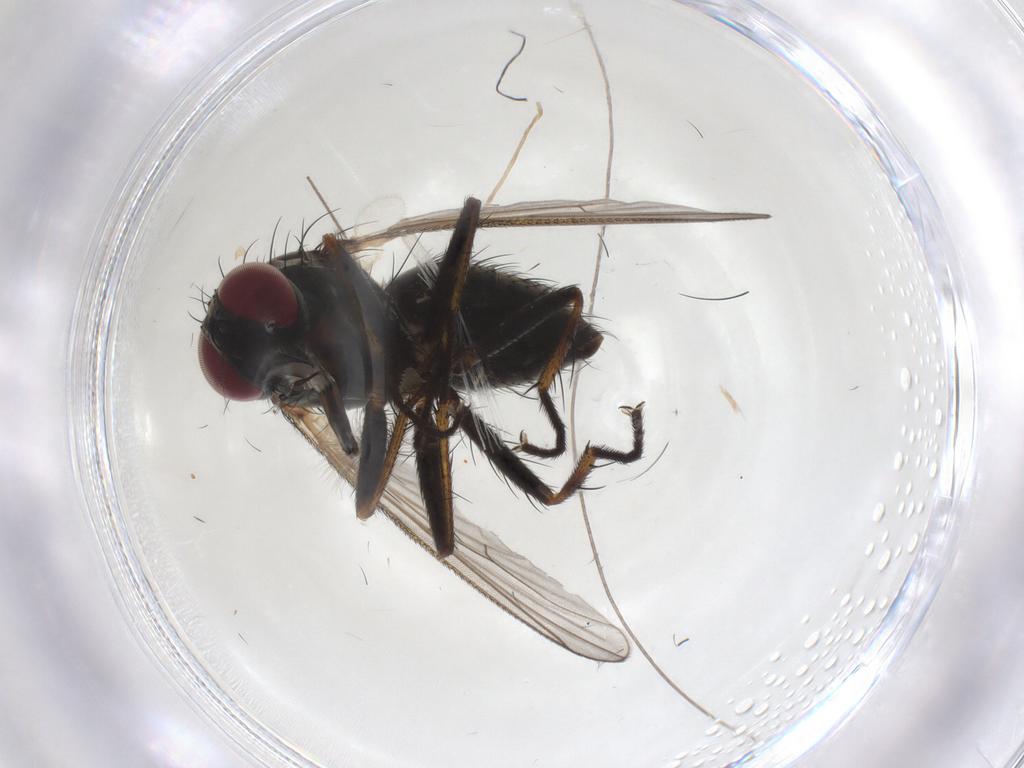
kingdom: Animalia
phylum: Arthropoda
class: Insecta
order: Diptera
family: Muscidae
